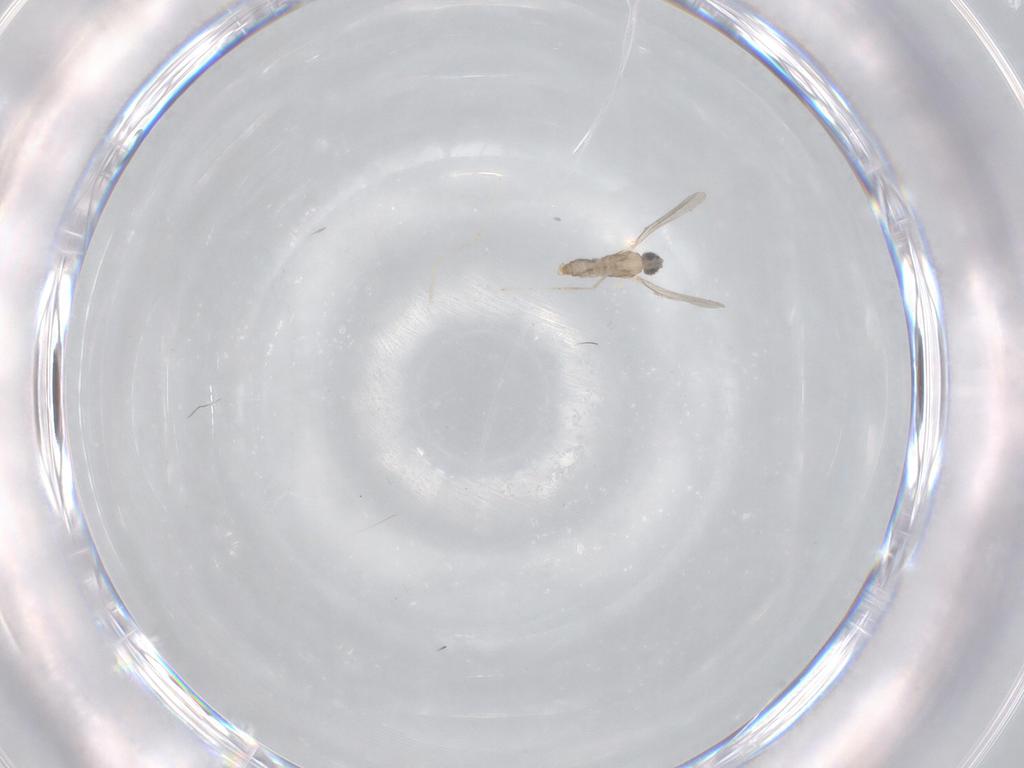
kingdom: Animalia
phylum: Arthropoda
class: Insecta
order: Diptera
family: Cecidomyiidae
